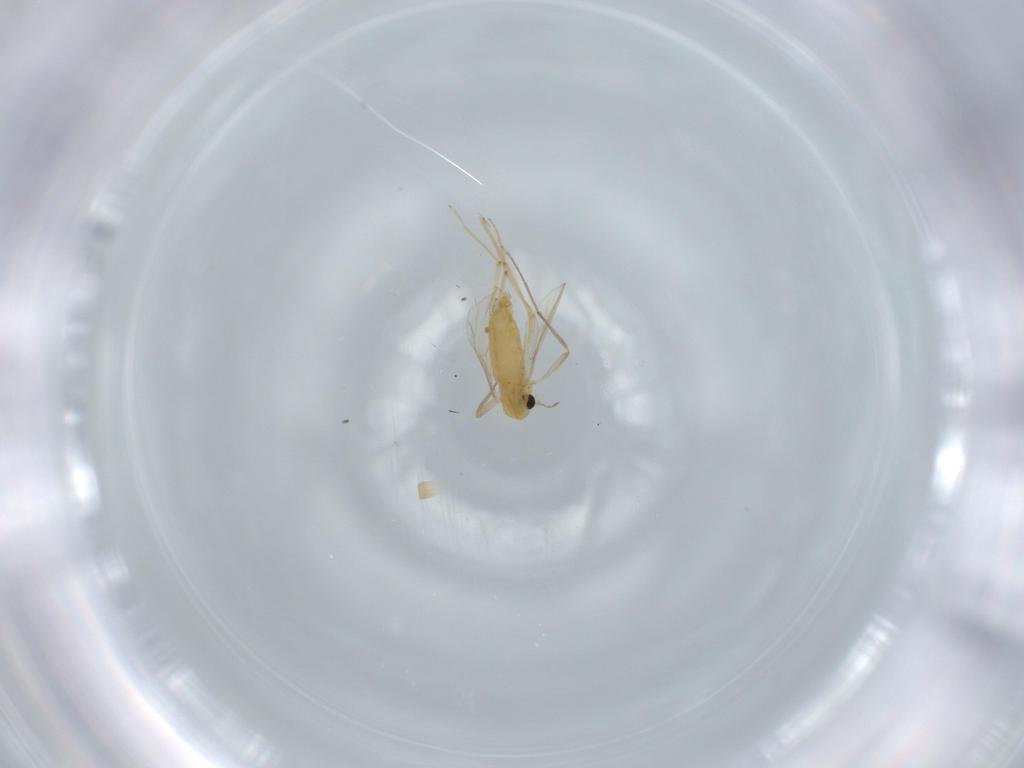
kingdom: Animalia
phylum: Arthropoda
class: Insecta
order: Diptera
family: Chironomidae
